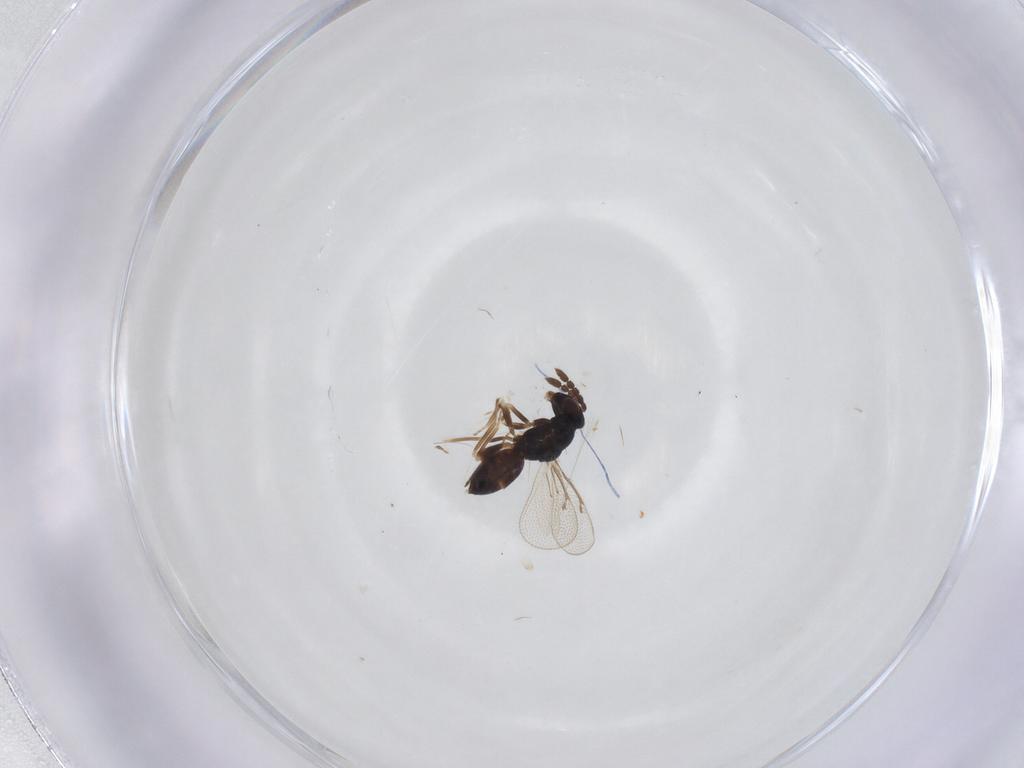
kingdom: Animalia
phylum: Arthropoda
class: Insecta
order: Hymenoptera
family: Eulophidae
